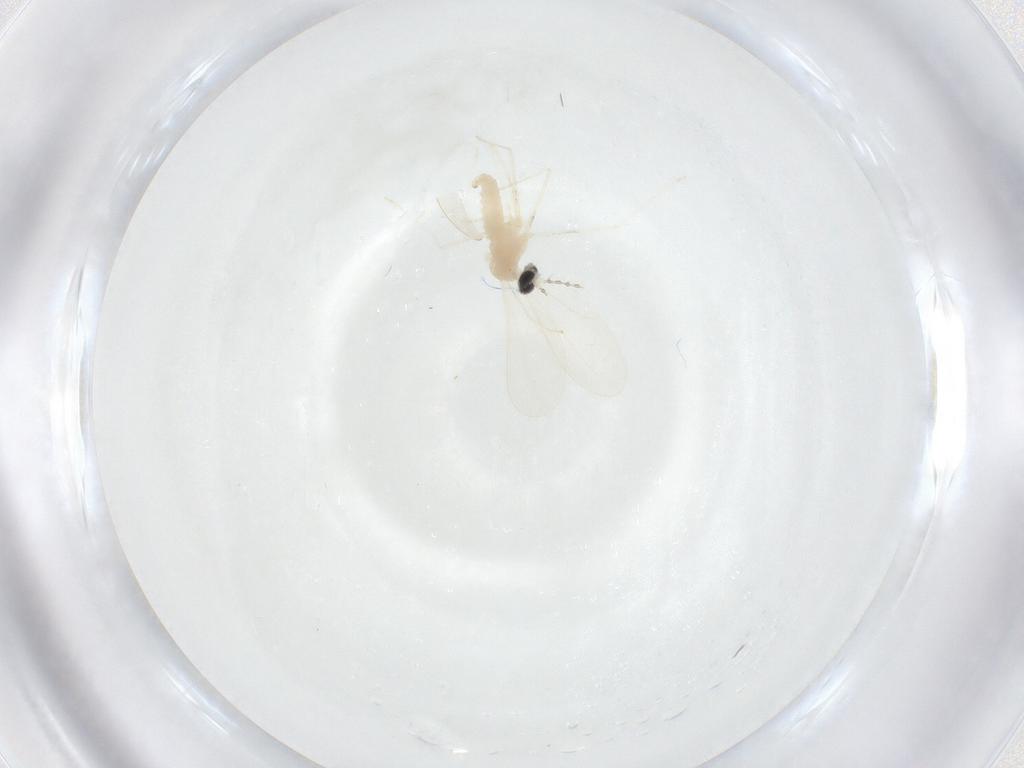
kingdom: Animalia
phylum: Arthropoda
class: Insecta
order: Diptera
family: Cecidomyiidae
